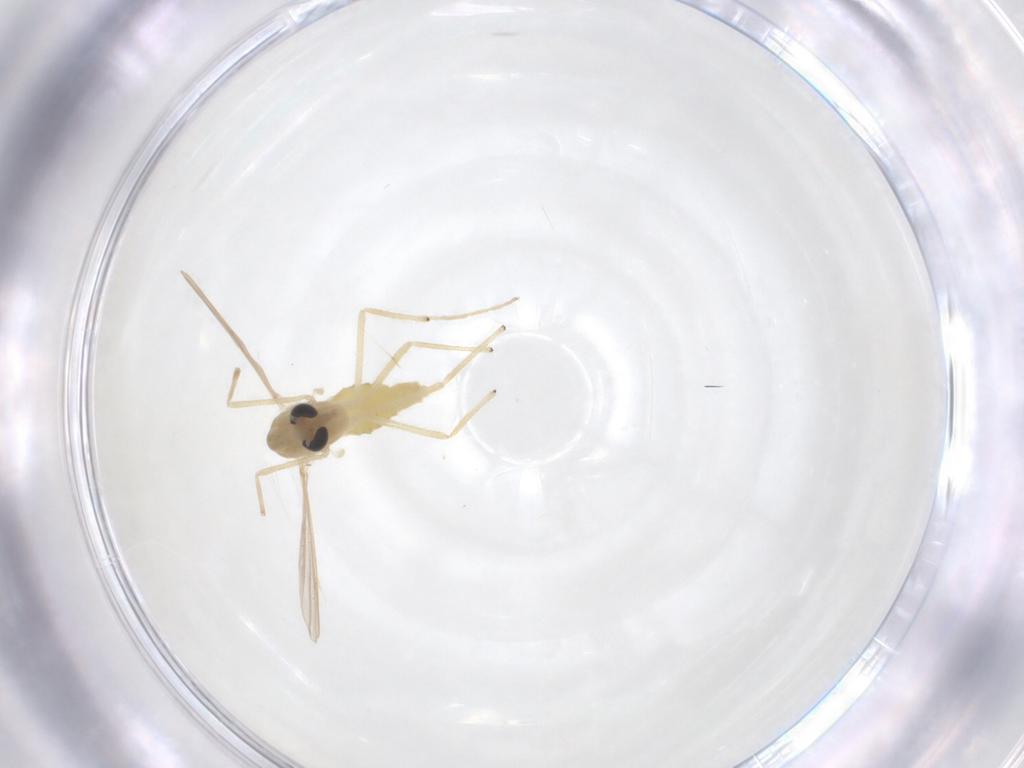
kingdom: Animalia
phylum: Arthropoda
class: Insecta
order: Diptera
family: Chironomidae
